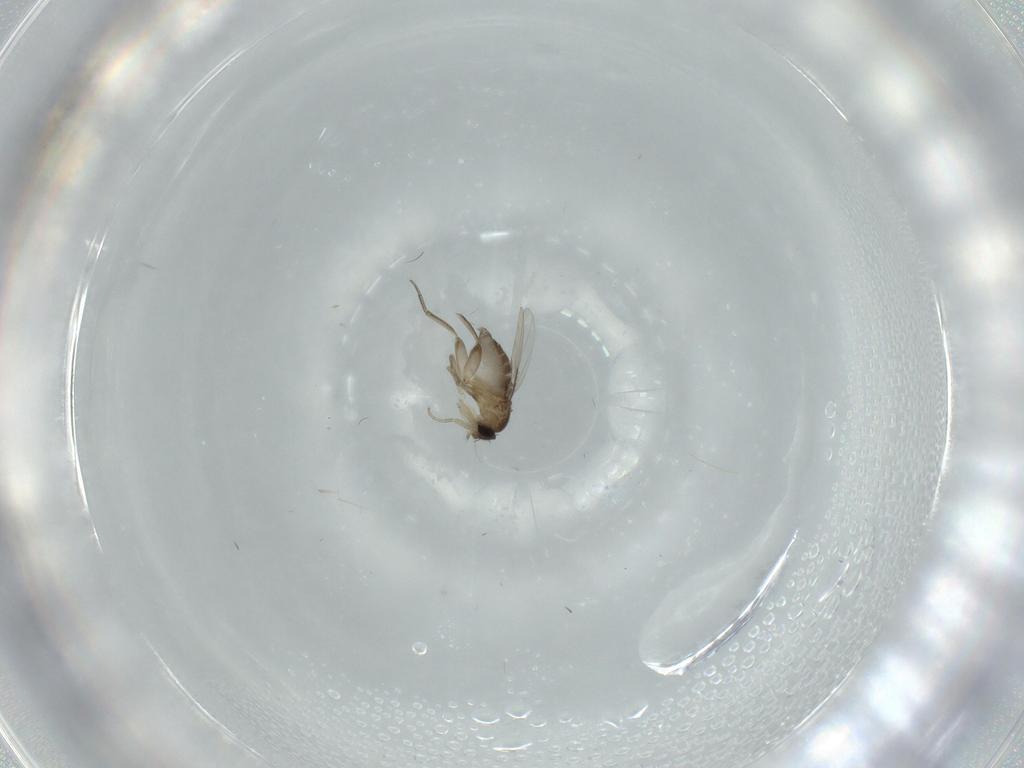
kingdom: Animalia
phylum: Arthropoda
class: Insecta
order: Diptera
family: Phoridae
